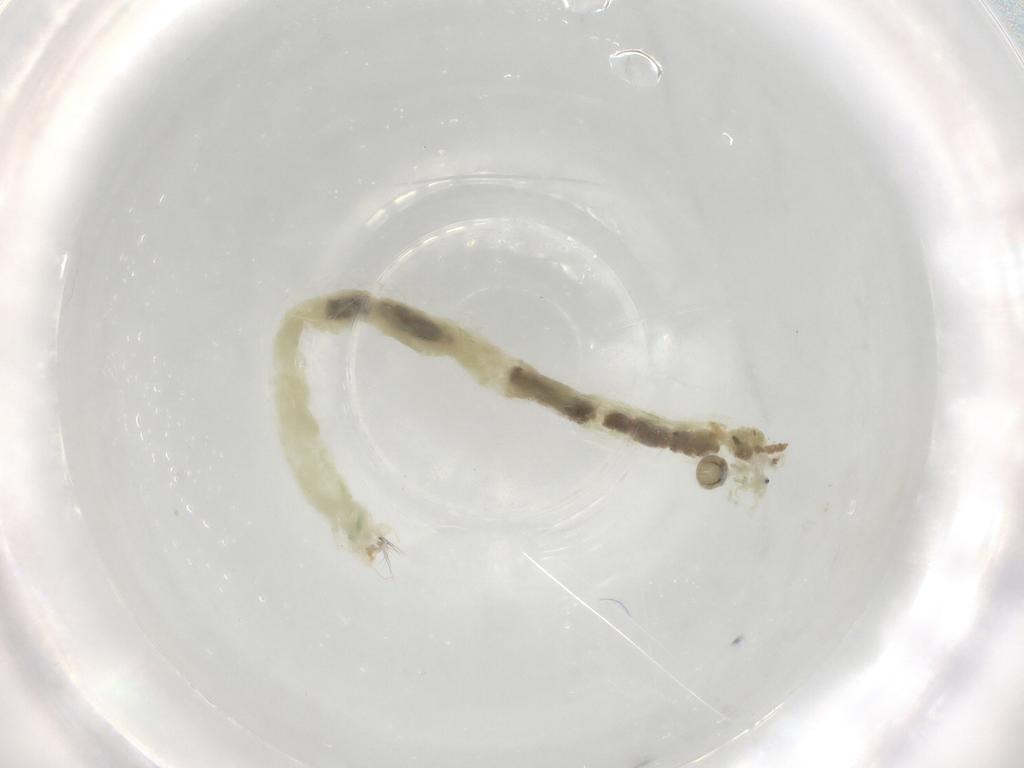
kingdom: Animalia
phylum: Arthropoda
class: Insecta
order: Diptera
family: Chironomidae
